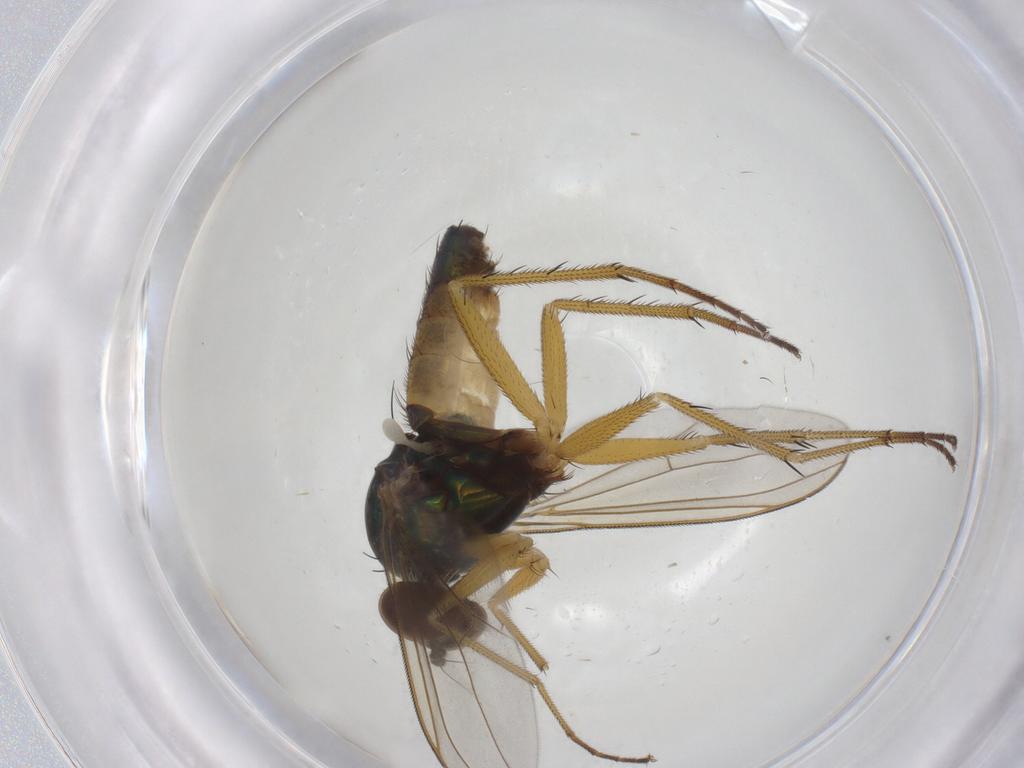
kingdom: Animalia
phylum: Arthropoda
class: Insecta
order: Diptera
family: Dolichopodidae
